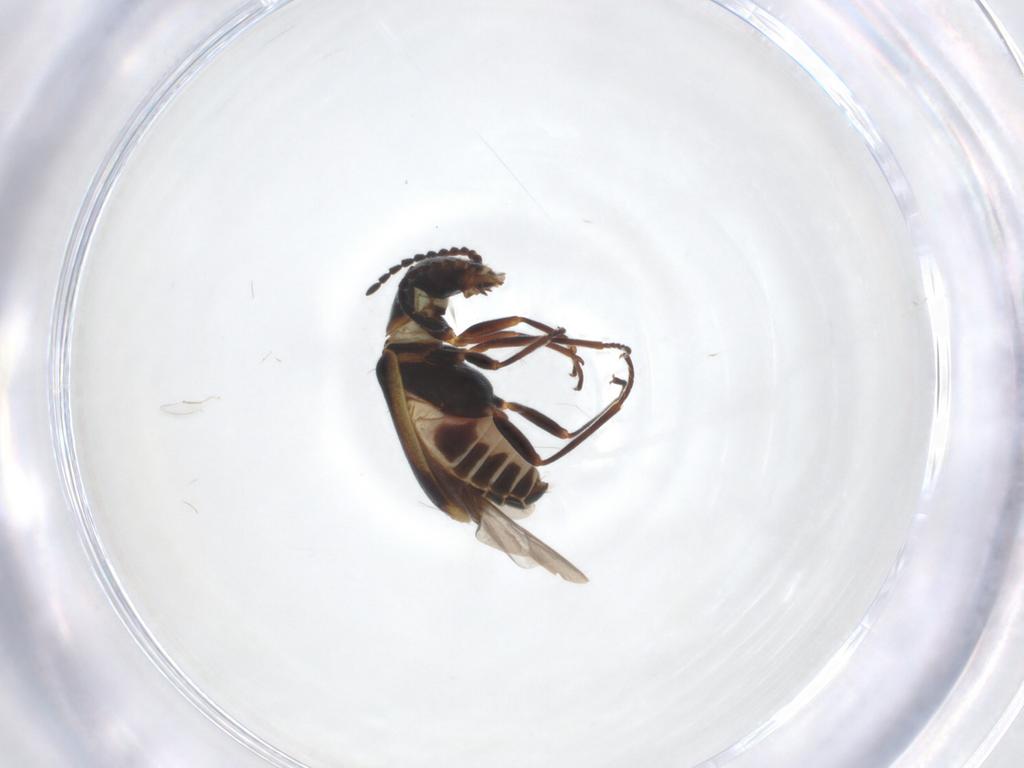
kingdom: Animalia
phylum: Arthropoda
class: Insecta
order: Coleoptera
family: Melyridae
